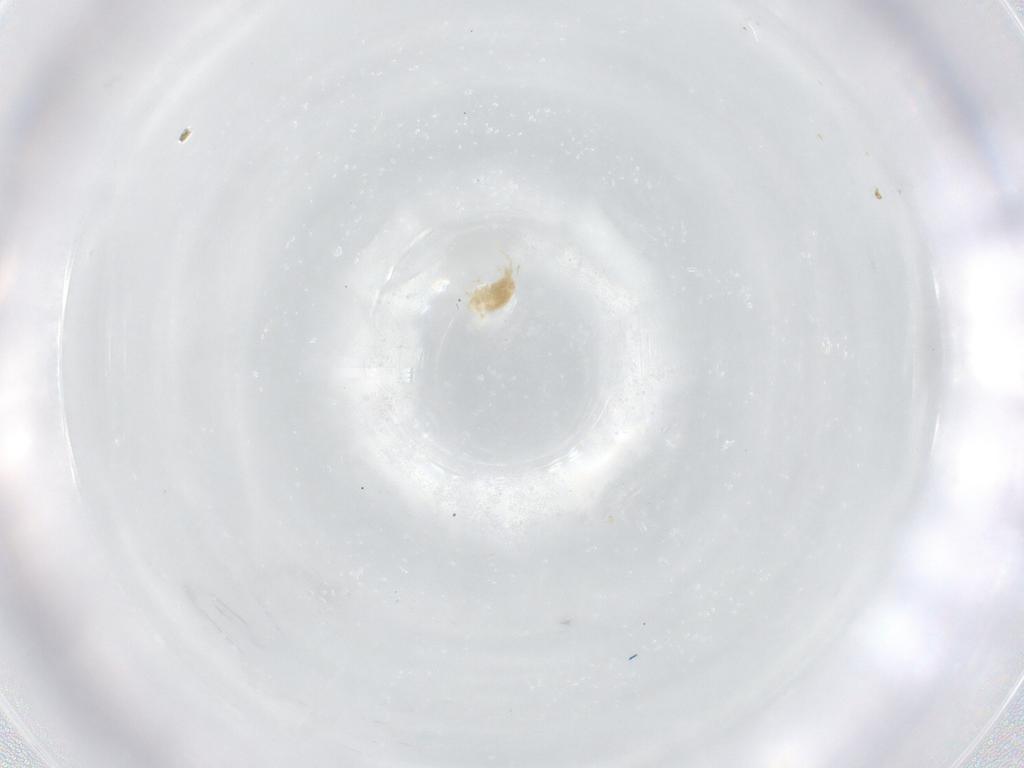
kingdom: Animalia
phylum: Arthropoda
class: Arachnida
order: Trombidiformes
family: Eupodidae
